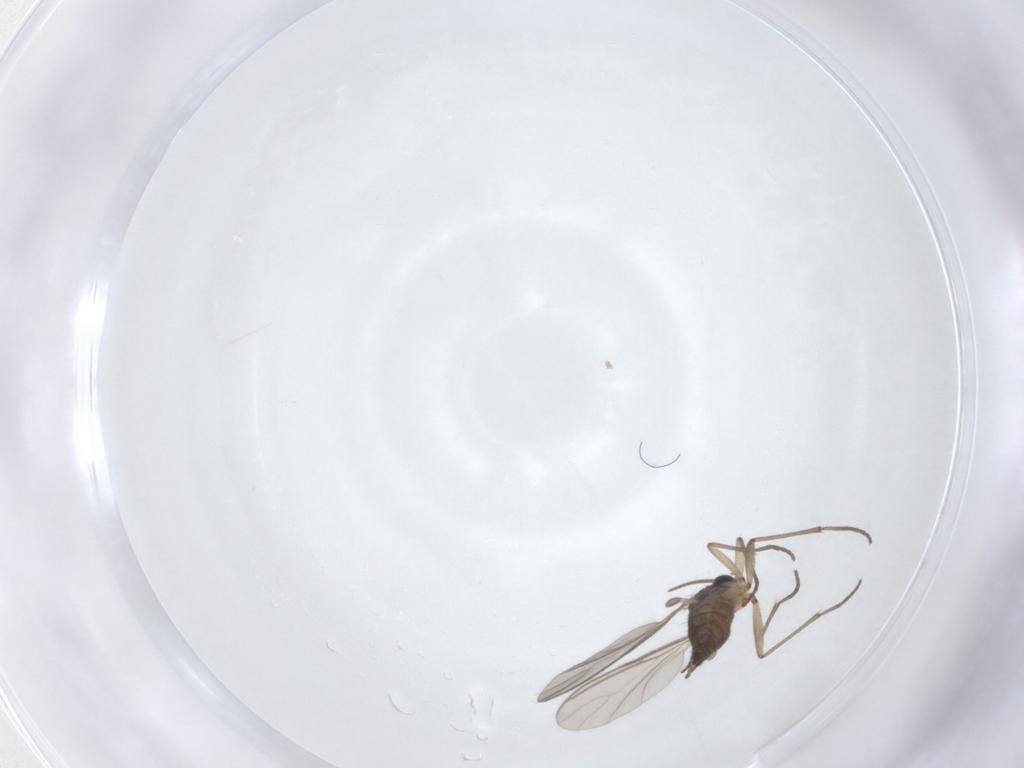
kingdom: Animalia
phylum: Arthropoda
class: Insecta
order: Diptera
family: Sciaridae
